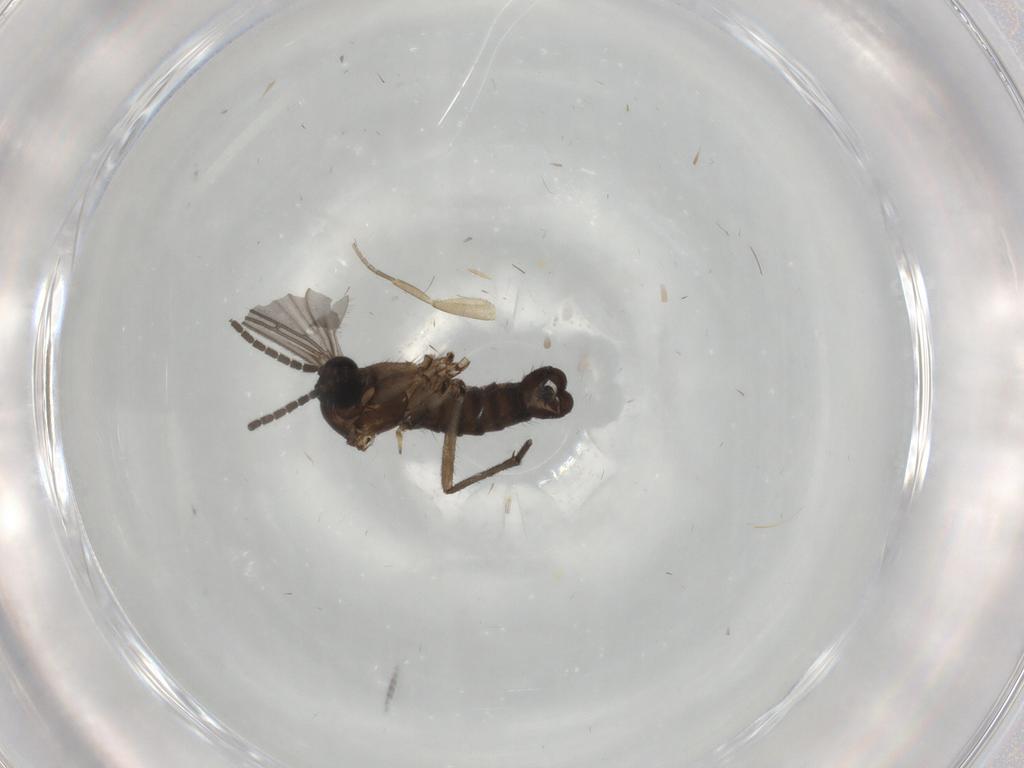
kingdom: Animalia
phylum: Arthropoda
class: Insecta
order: Diptera
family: Sciaridae
